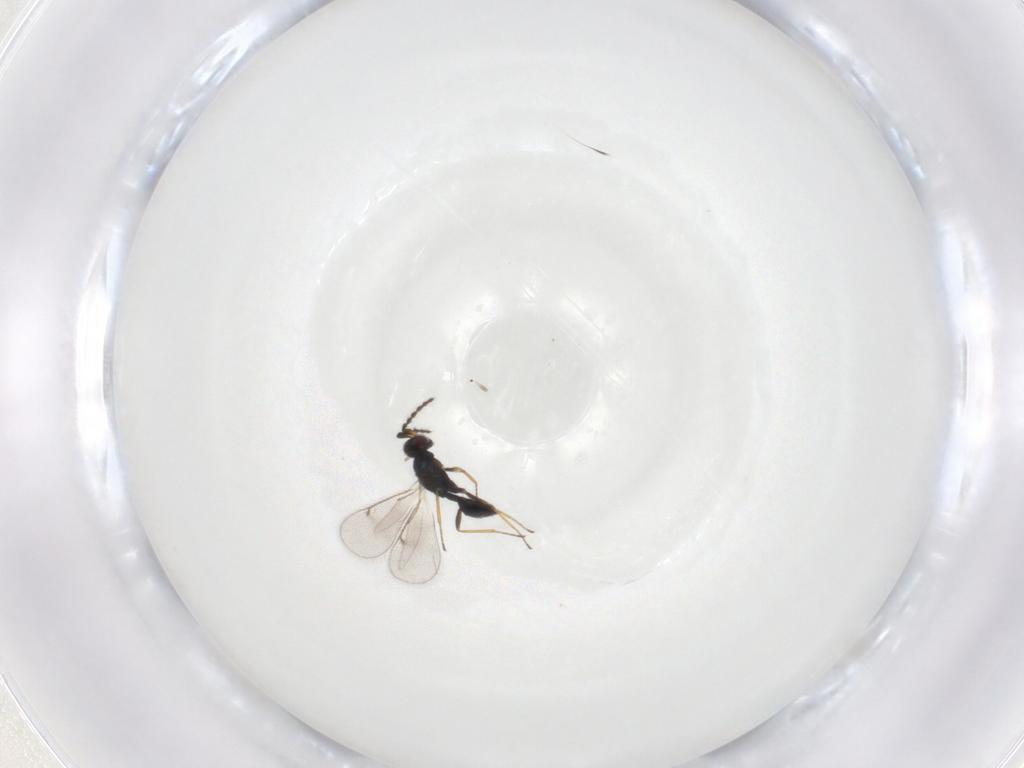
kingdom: Animalia
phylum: Arthropoda
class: Insecta
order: Hymenoptera
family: Eulophidae
